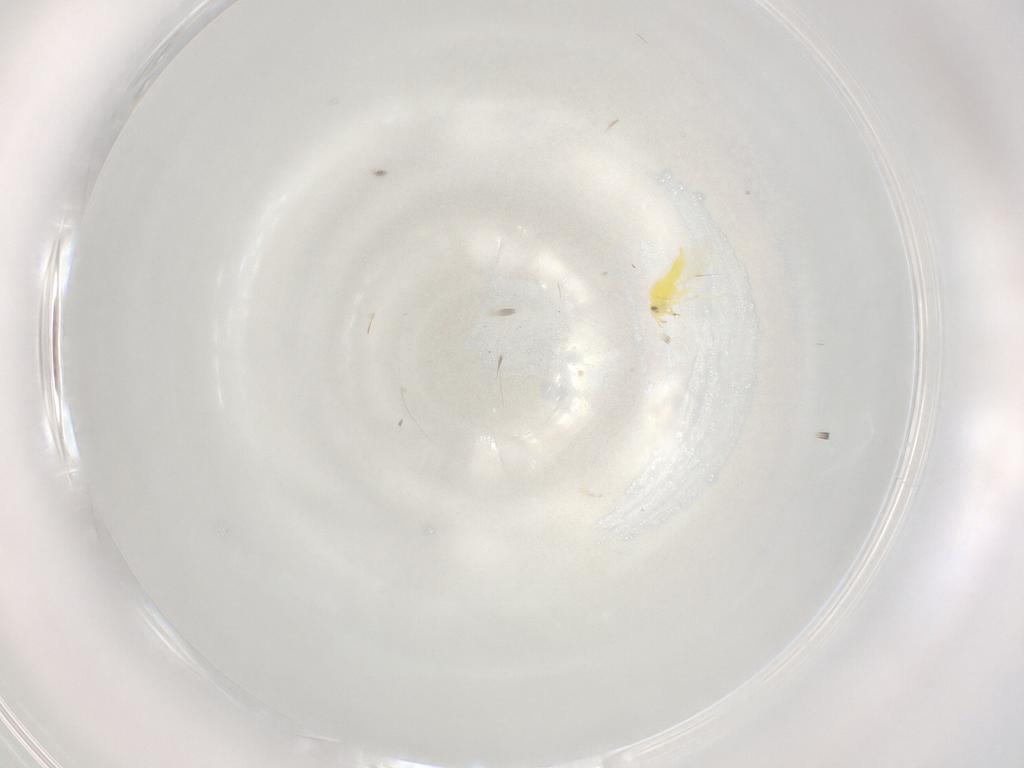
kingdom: Animalia
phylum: Arthropoda
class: Insecta
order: Hemiptera
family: Aleyrodidae
